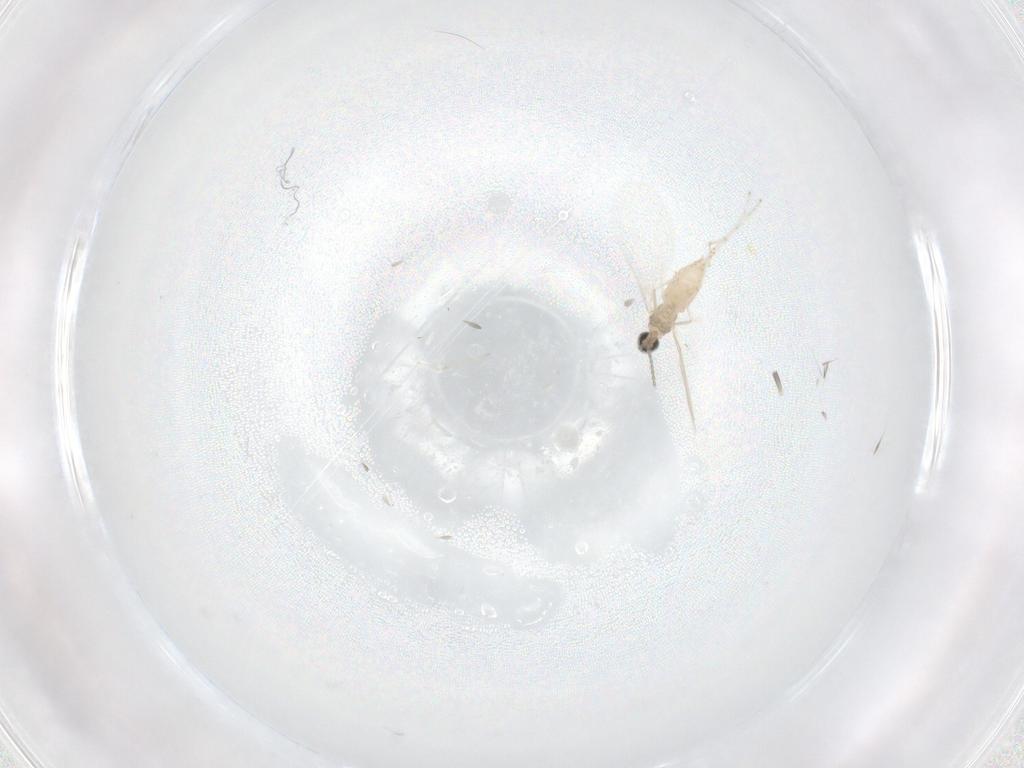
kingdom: Animalia
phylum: Arthropoda
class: Insecta
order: Diptera
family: Cecidomyiidae
